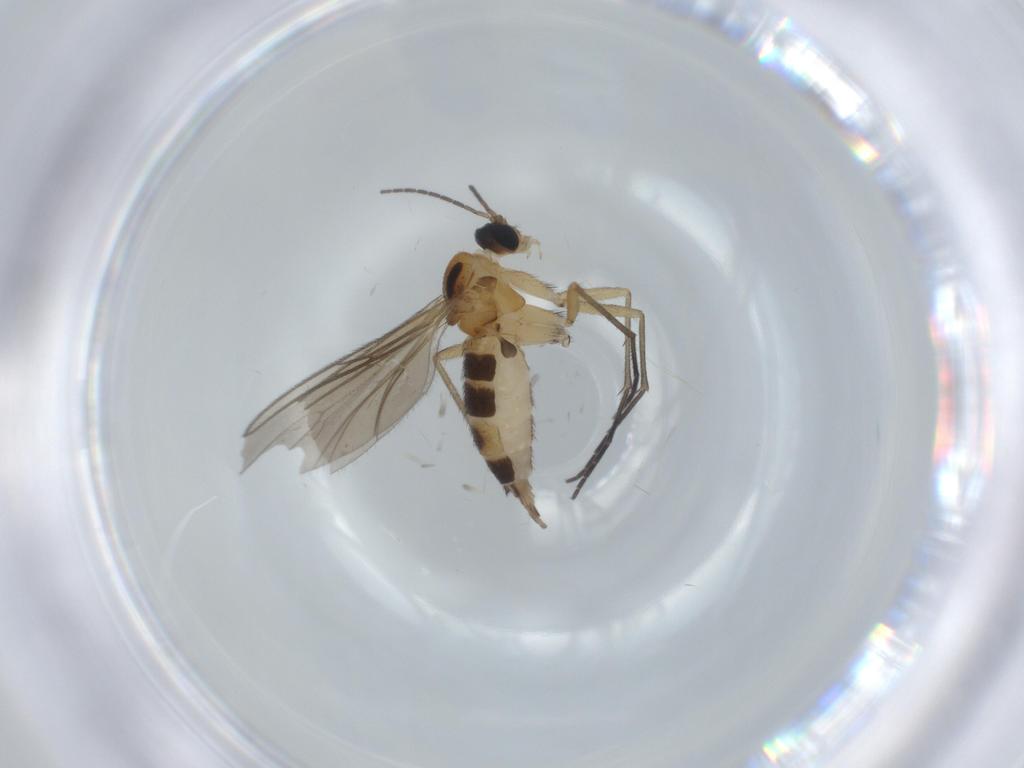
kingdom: Animalia
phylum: Arthropoda
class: Insecta
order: Diptera
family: Sciaridae
